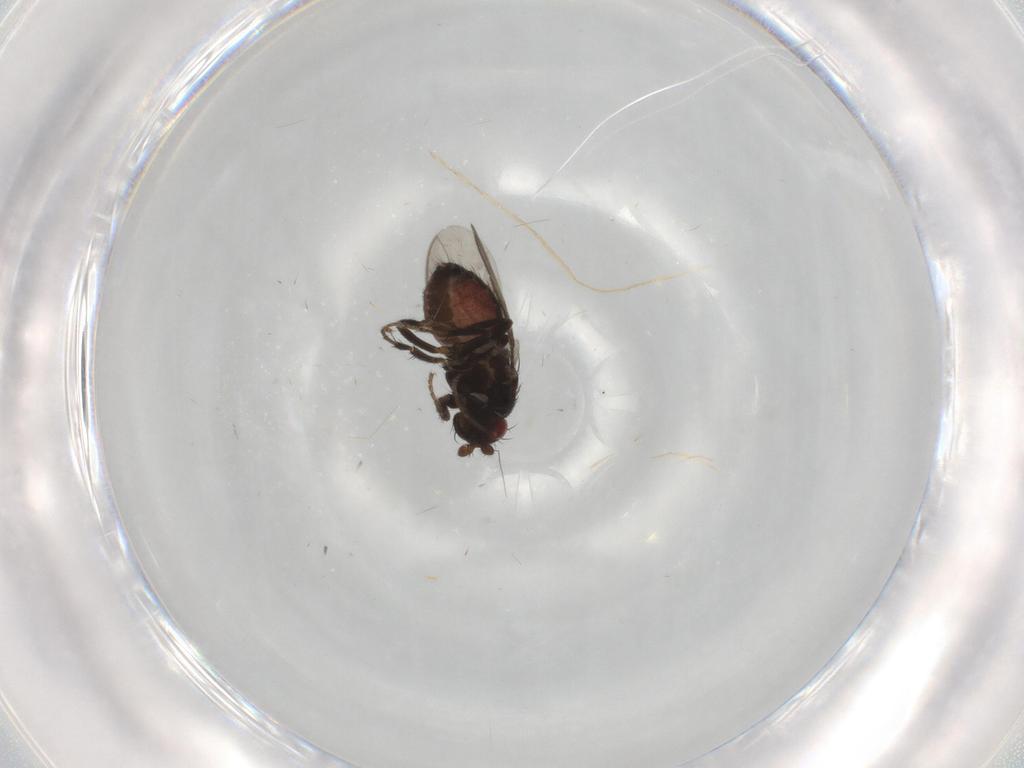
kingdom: Animalia
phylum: Arthropoda
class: Insecta
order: Diptera
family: Sphaeroceridae
